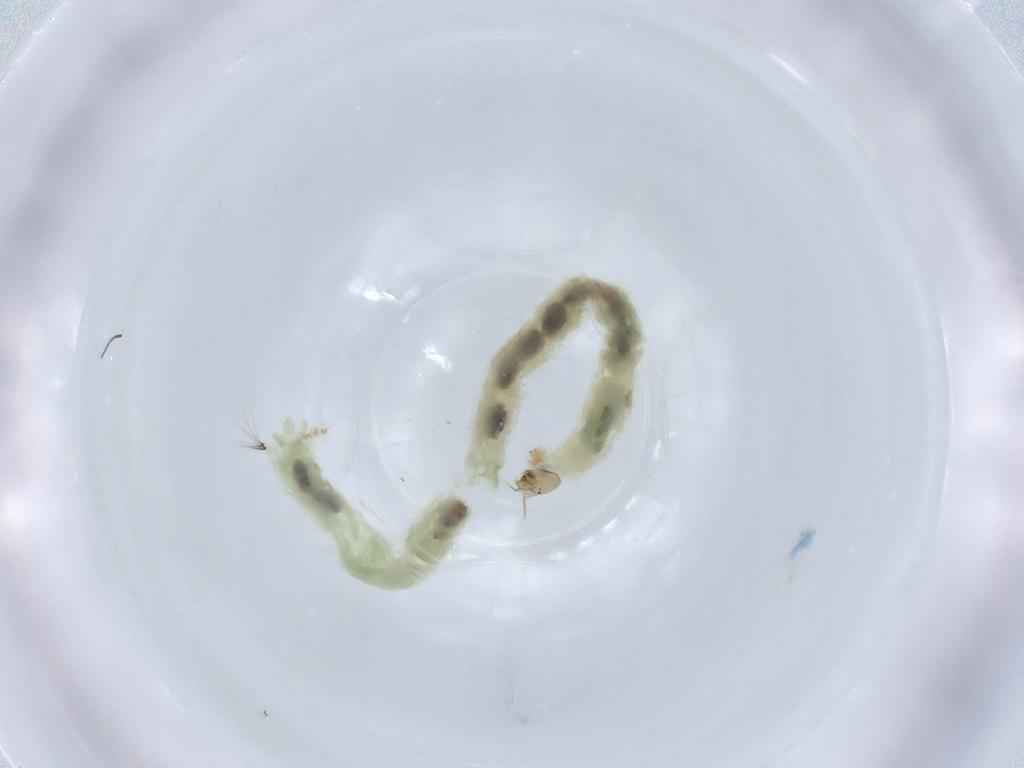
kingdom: Animalia
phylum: Arthropoda
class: Insecta
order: Diptera
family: Chironomidae
